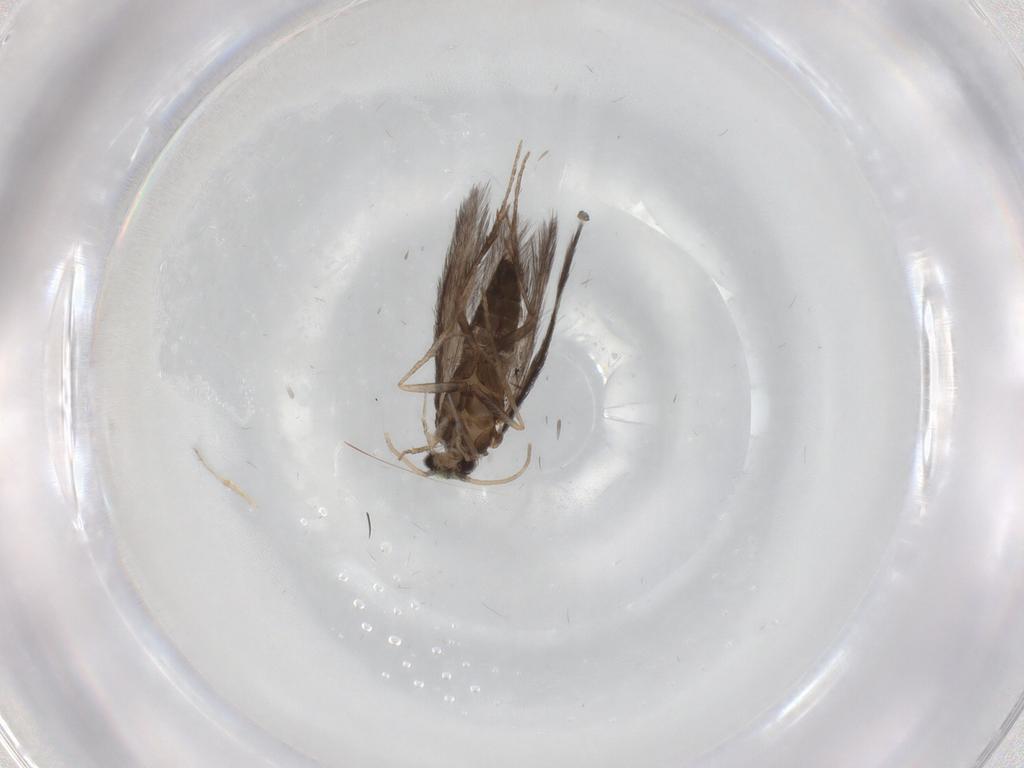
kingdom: Animalia
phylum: Arthropoda
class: Insecta
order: Trichoptera
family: Hydroptilidae
